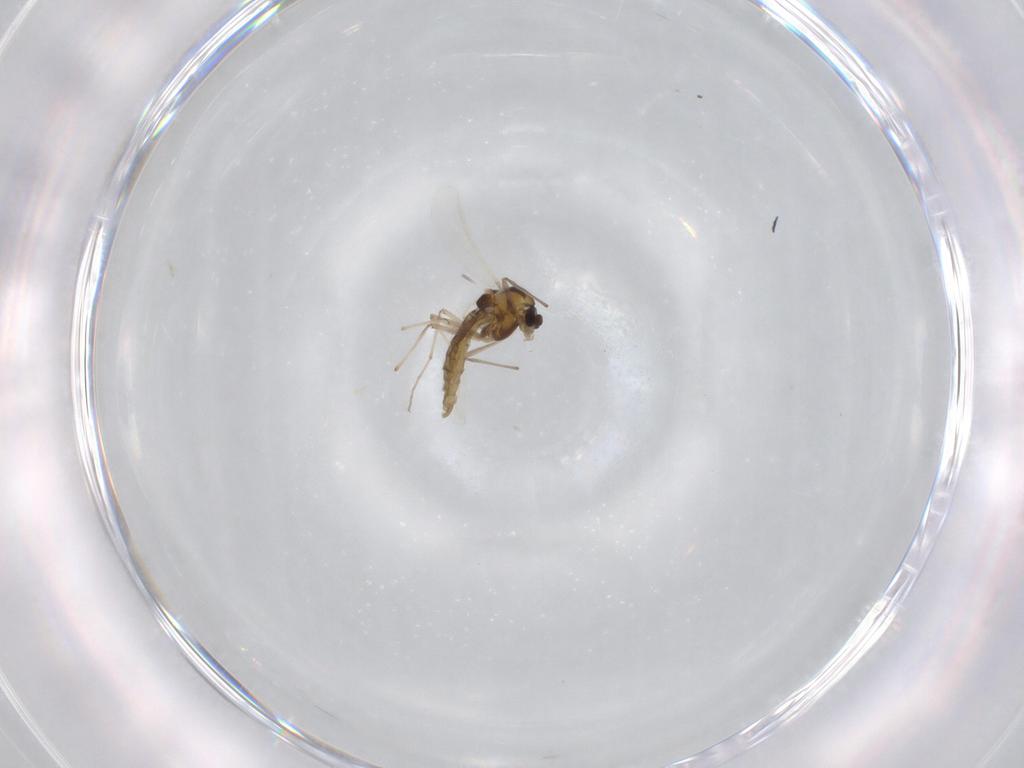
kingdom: Animalia
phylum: Arthropoda
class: Insecta
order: Diptera
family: Chironomidae
